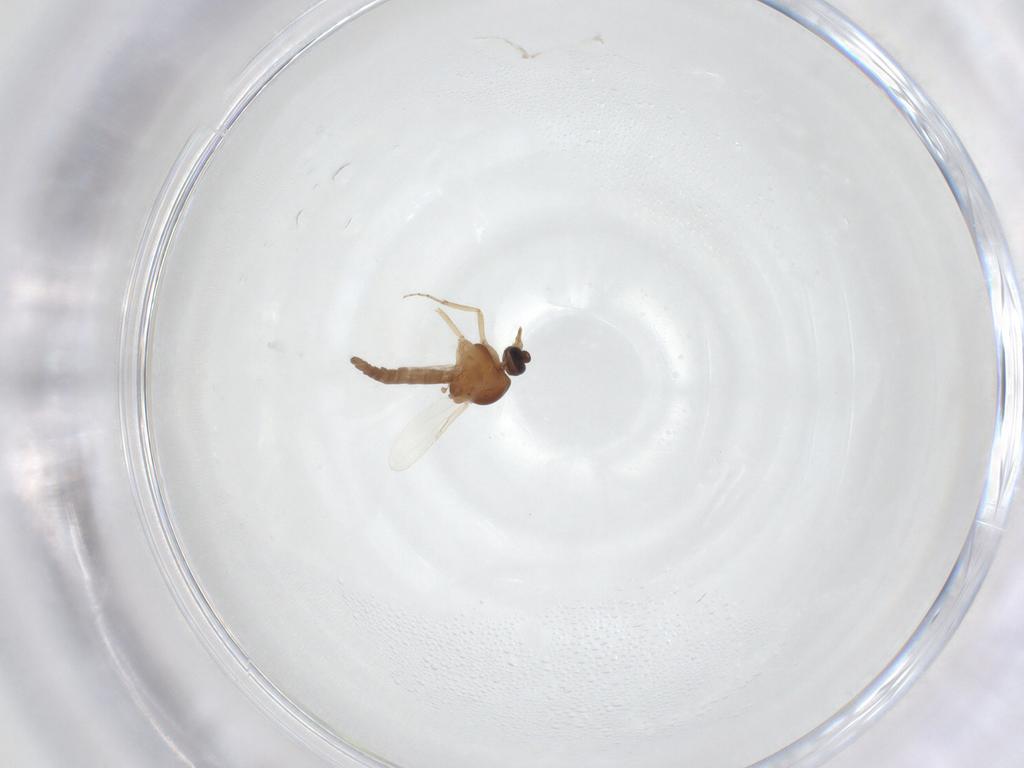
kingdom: Animalia
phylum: Arthropoda
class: Insecta
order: Diptera
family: Ceratopogonidae
